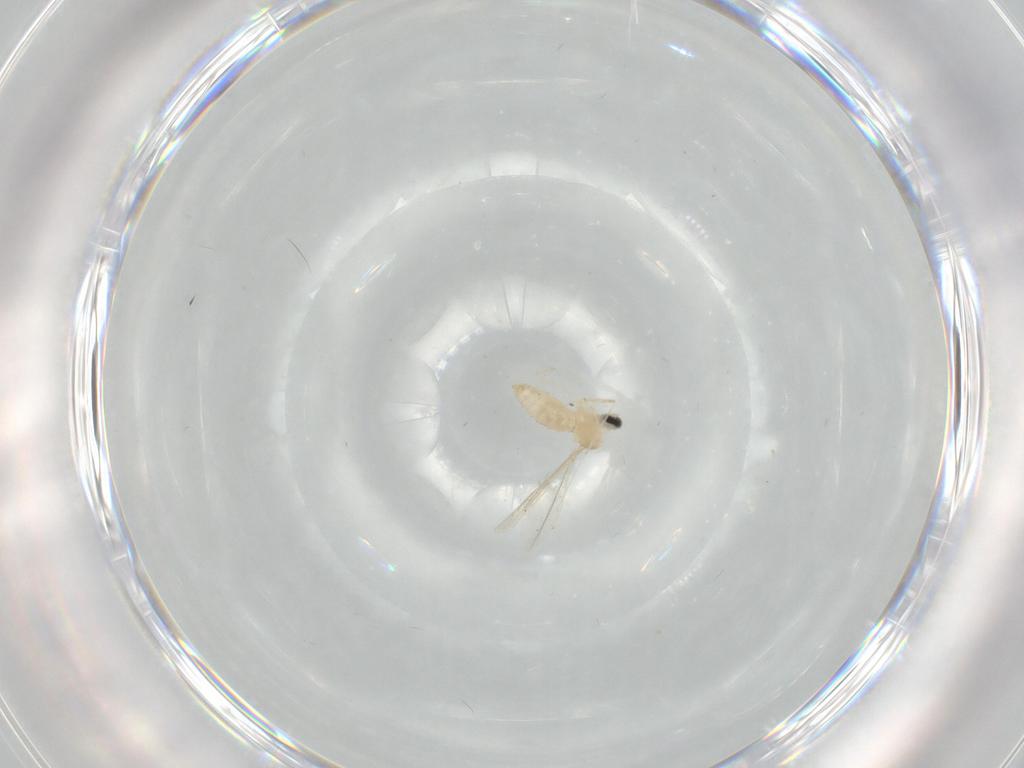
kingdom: Animalia
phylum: Arthropoda
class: Insecta
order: Diptera
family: Cecidomyiidae
